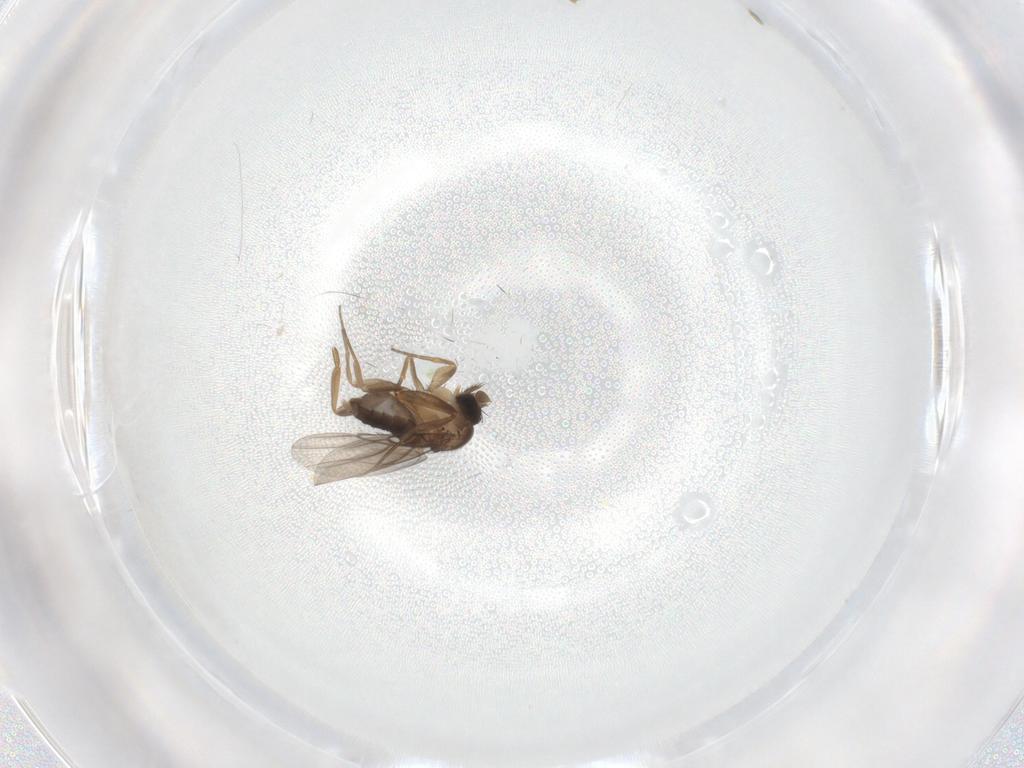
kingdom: Animalia
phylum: Arthropoda
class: Insecta
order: Diptera
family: Phoridae
